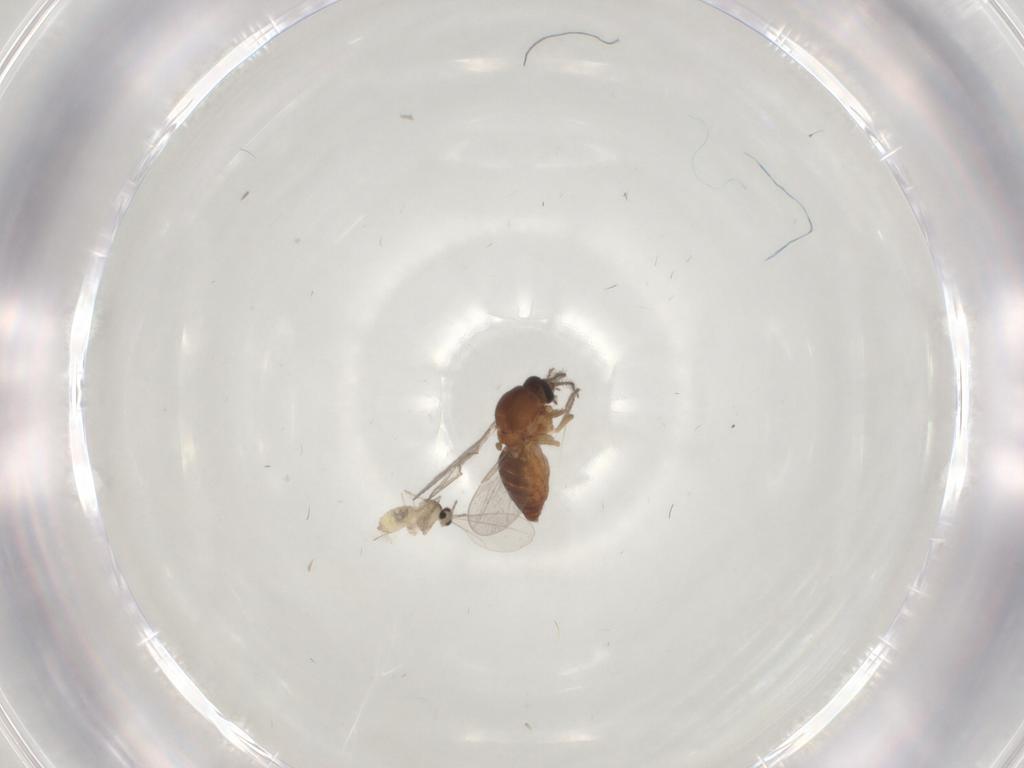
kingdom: Animalia
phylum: Arthropoda
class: Insecta
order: Diptera
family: Ceratopogonidae
